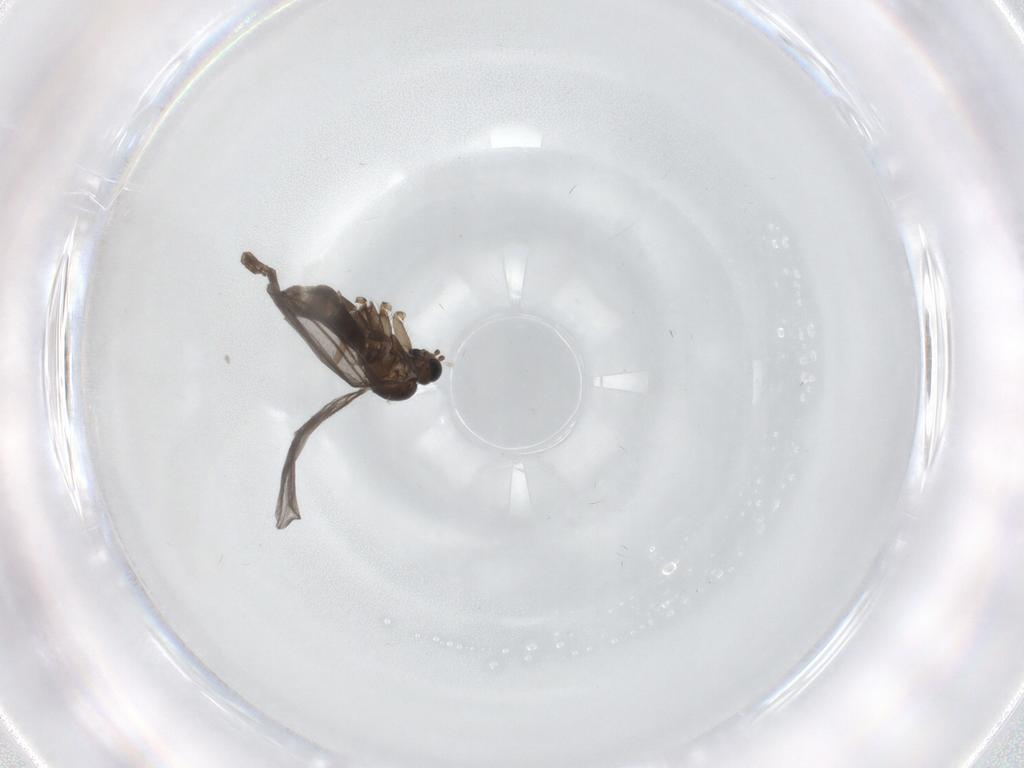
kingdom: Animalia
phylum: Arthropoda
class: Insecta
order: Diptera
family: Sciaridae
